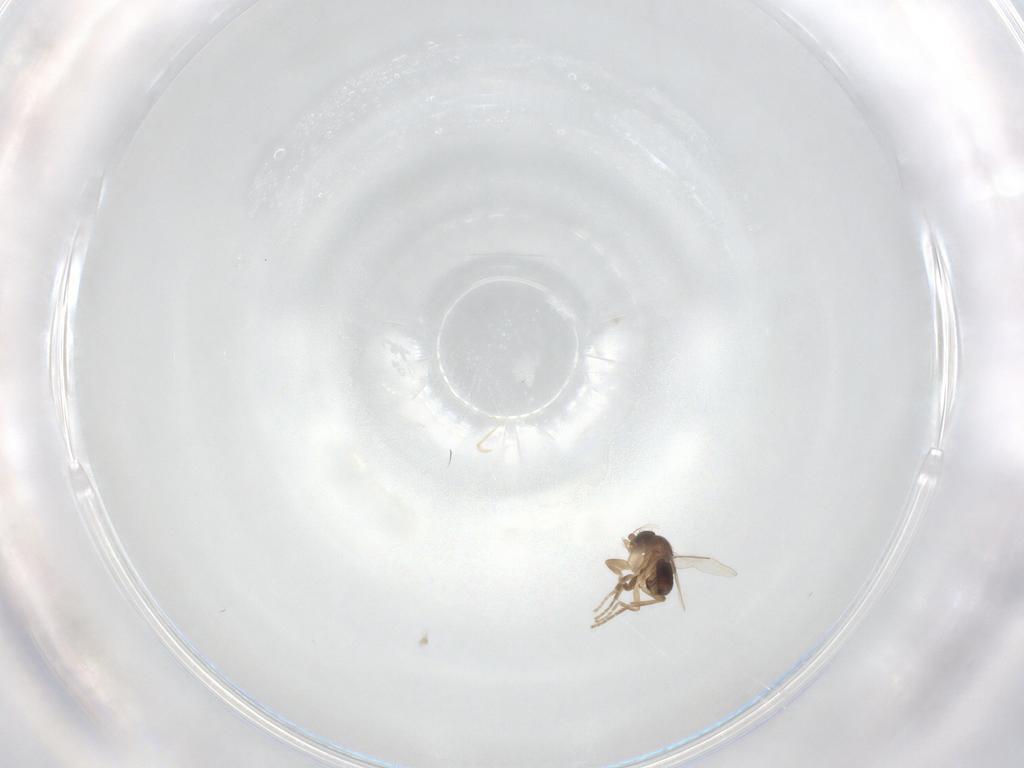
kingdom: Animalia
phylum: Arthropoda
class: Insecta
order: Diptera
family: Phoridae
